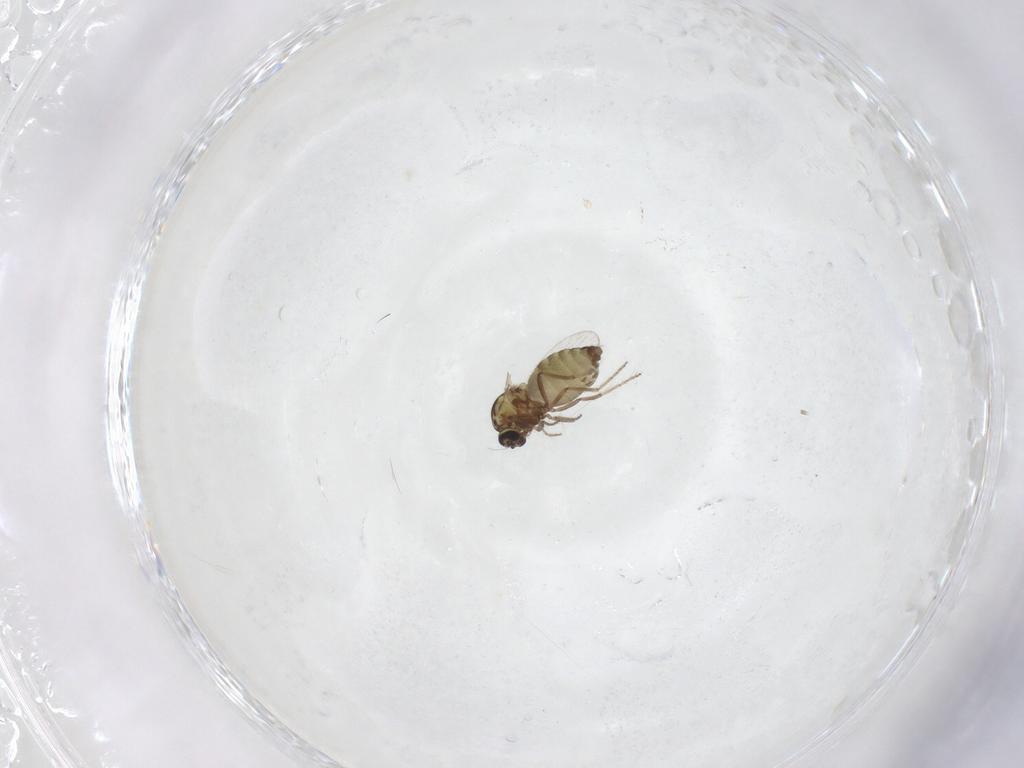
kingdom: Animalia
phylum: Arthropoda
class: Insecta
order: Diptera
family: Ceratopogonidae
